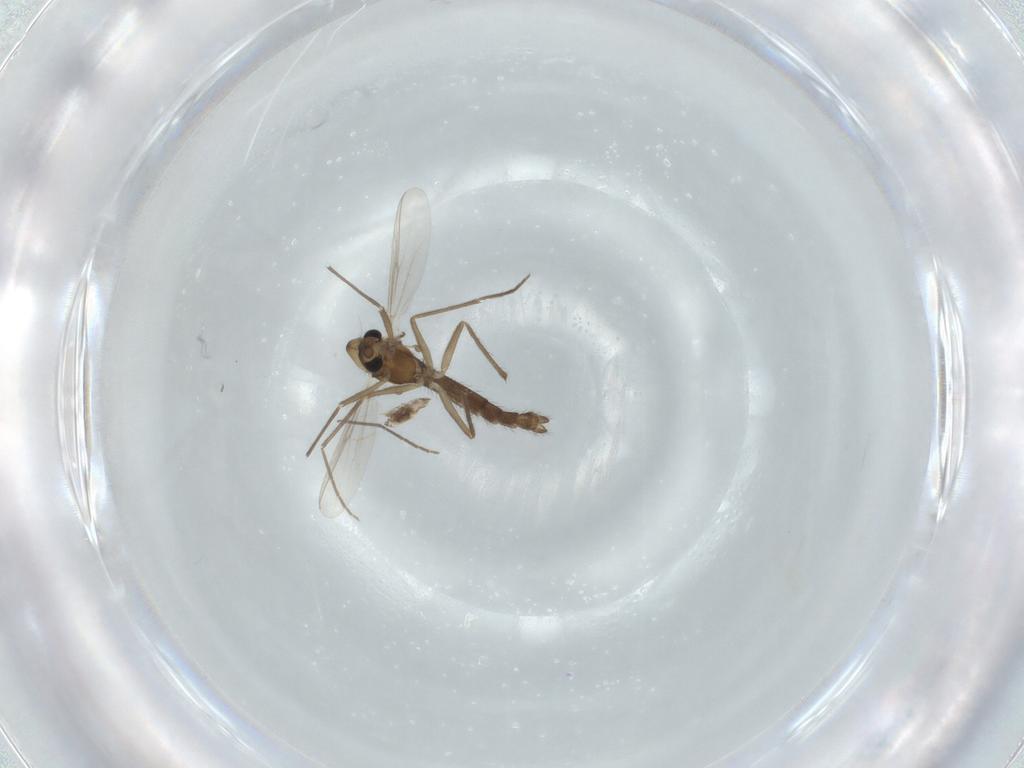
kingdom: Animalia
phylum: Arthropoda
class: Insecta
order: Diptera
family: Chironomidae
